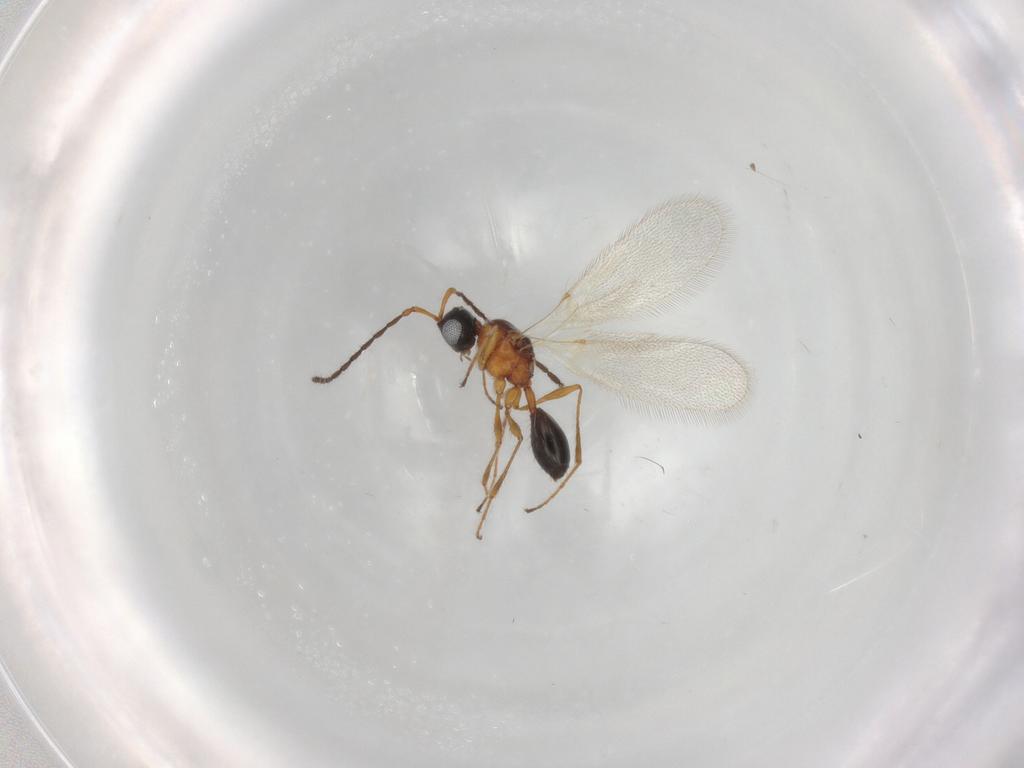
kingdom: Animalia
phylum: Arthropoda
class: Insecta
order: Hymenoptera
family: Diapriidae
